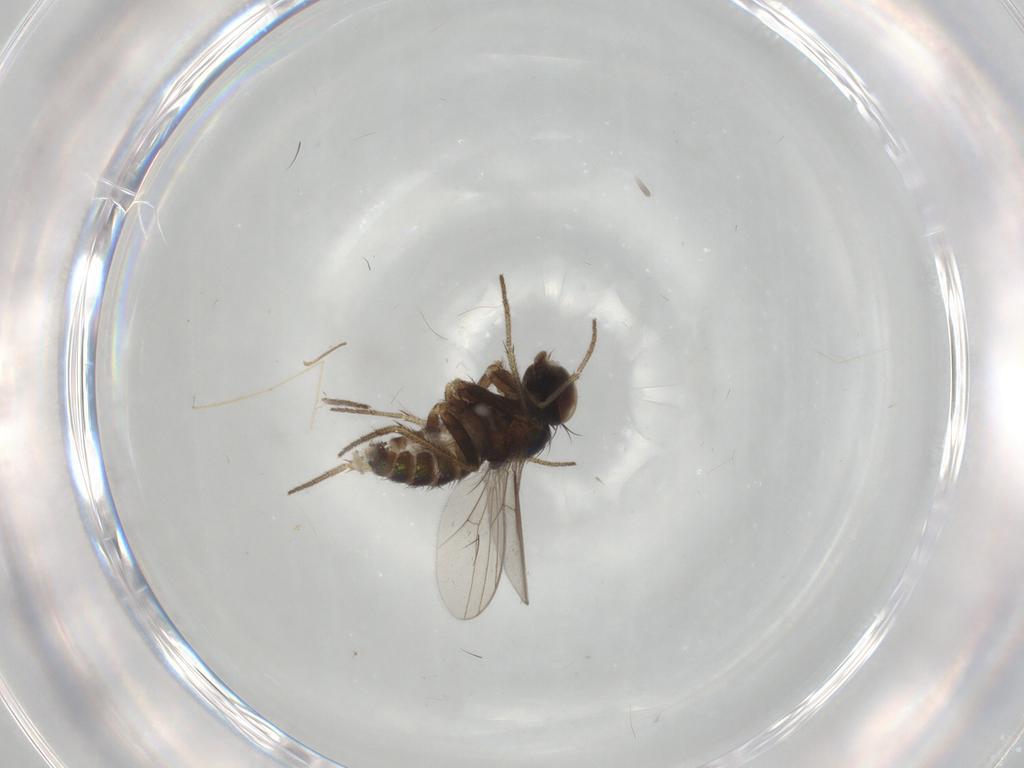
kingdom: Animalia
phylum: Arthropoda
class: Insecta
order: Diptera
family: Chironomidae
